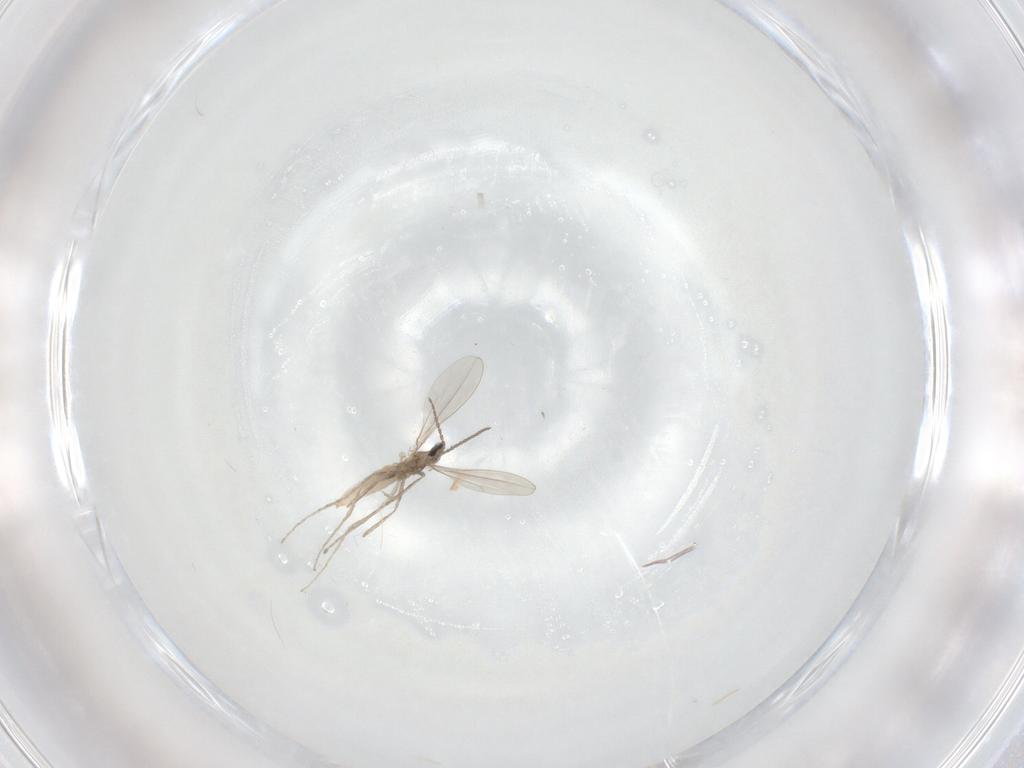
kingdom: Animalia
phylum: Arthropoda
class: Insecta
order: Diptera
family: Cecidomyiidae
